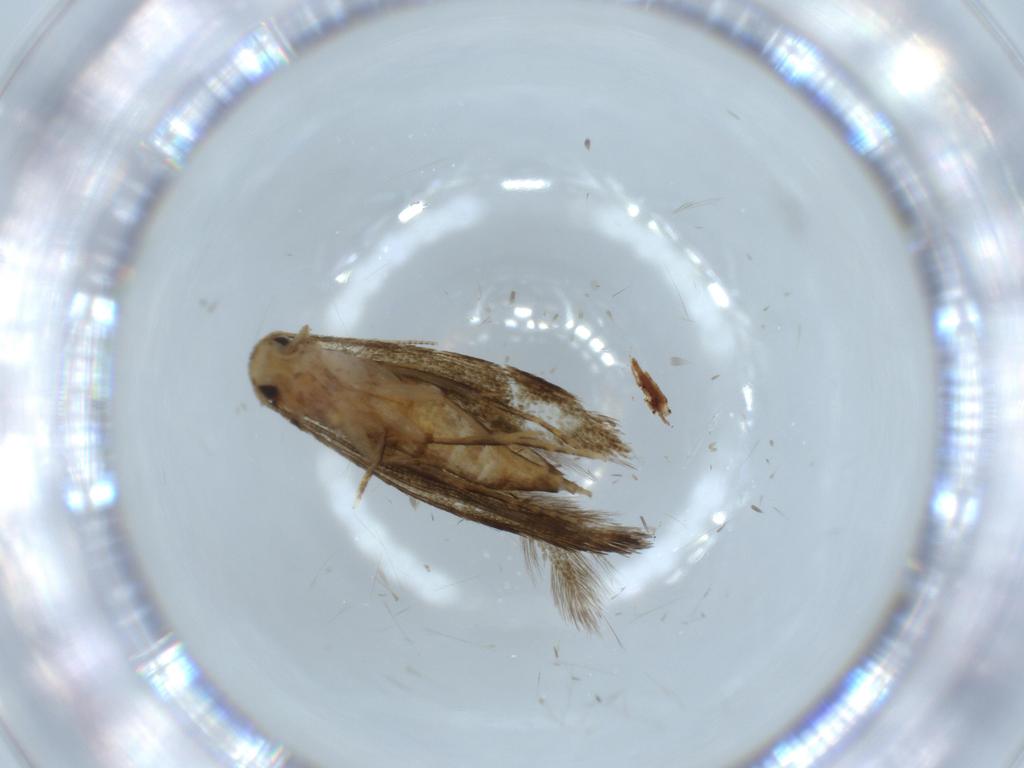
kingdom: Animalia
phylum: Arthropoda
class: Insecta
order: Lepidoptera
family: Tineidae
